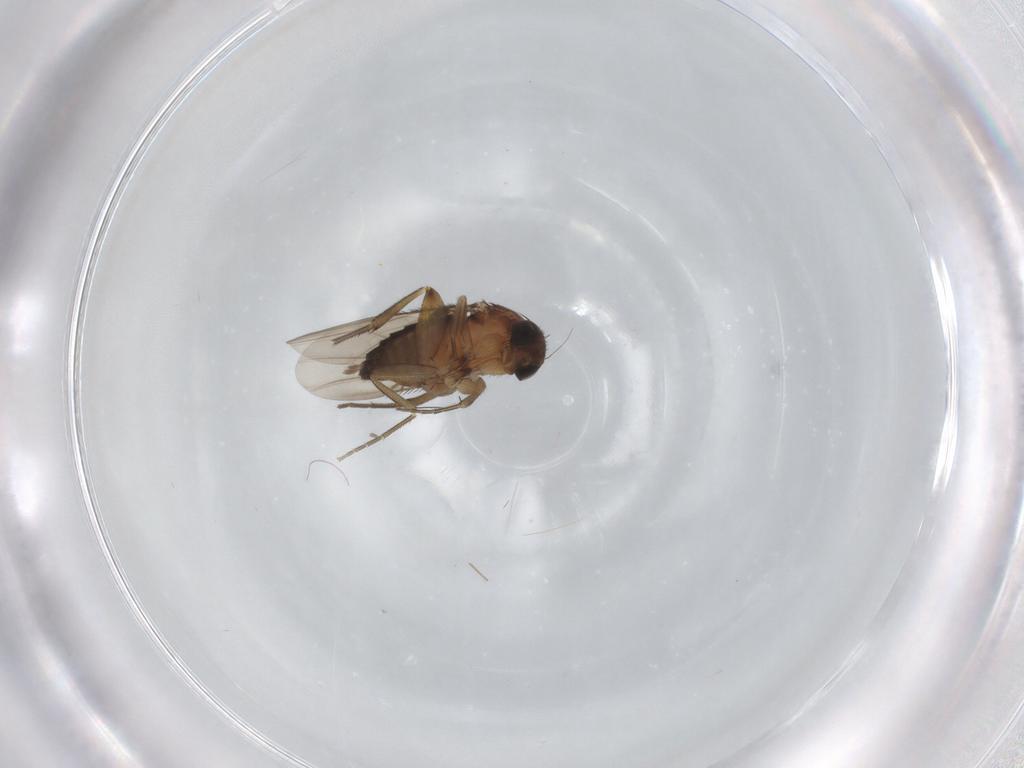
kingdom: Animalia
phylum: Arthropoda
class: Insecta
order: Diptera
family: Phoridae
